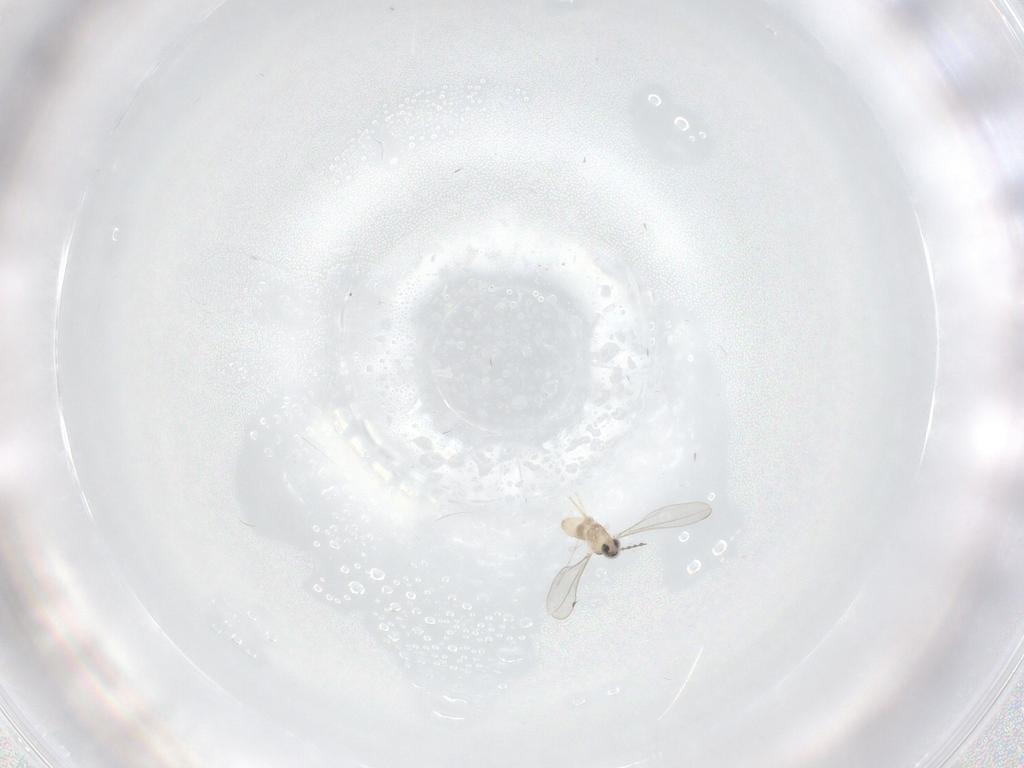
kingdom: Animalia
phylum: Arthropoda
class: Insecta
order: Diptera
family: Cecidomyiidae
